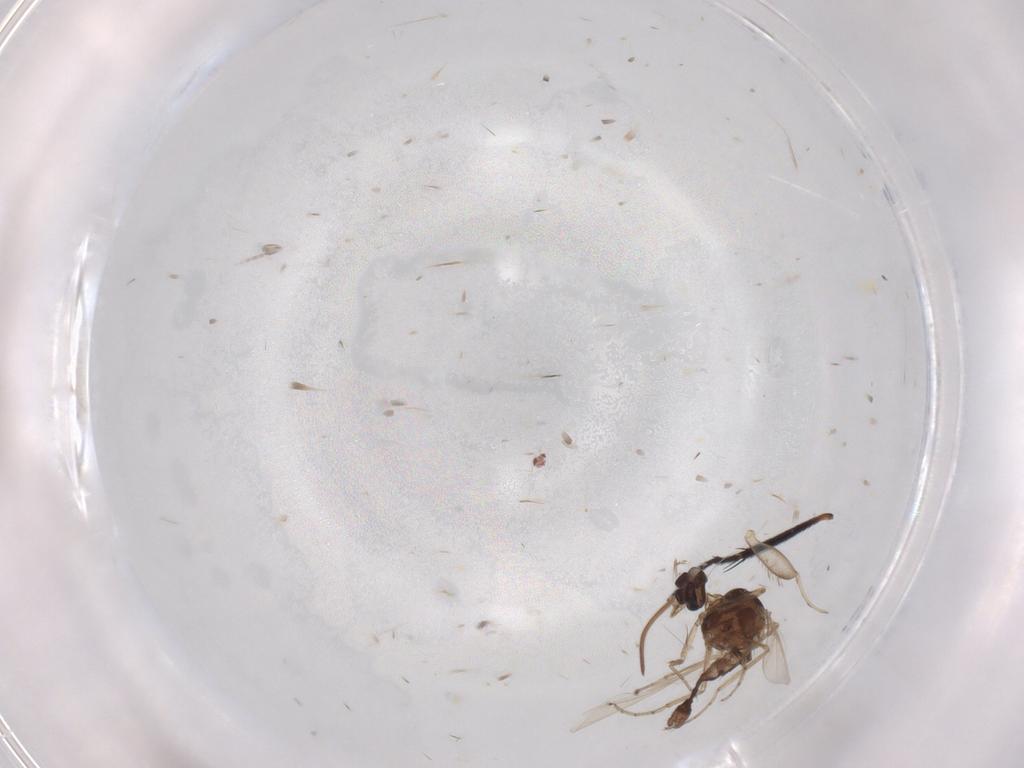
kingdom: Animalia
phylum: Arthropoda
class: Insecta
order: Diptera
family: Ceratopogonidae
